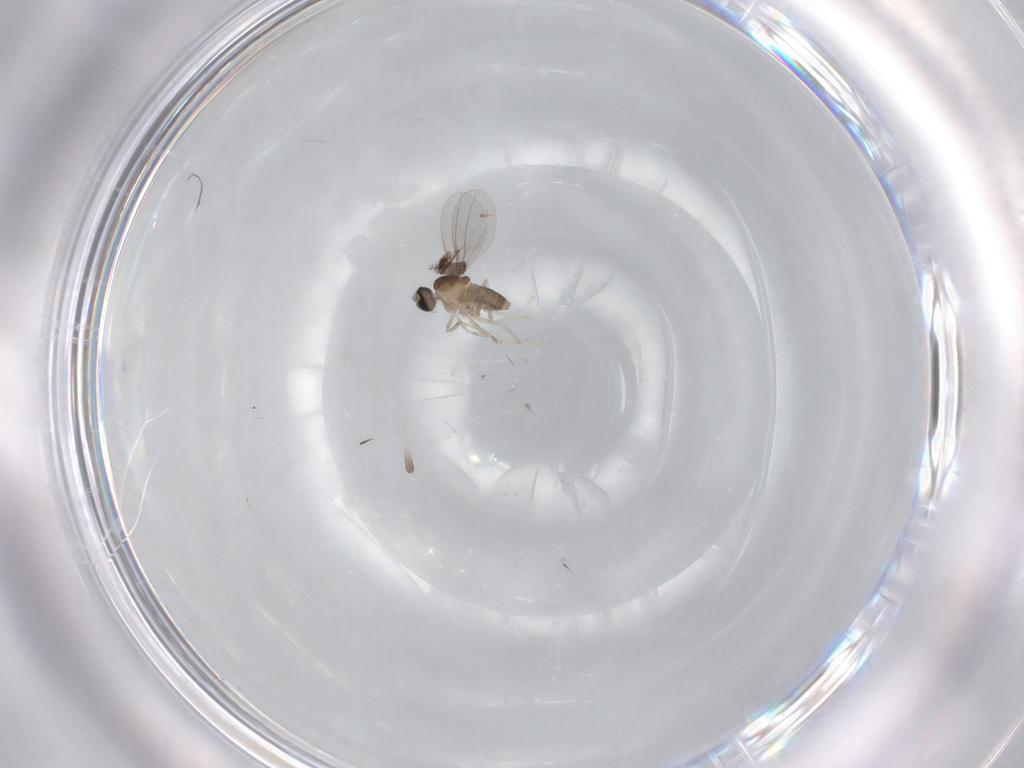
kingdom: Animalia
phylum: Arthropoda
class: Insecta
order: Diptera
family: Cecidomyiidae
